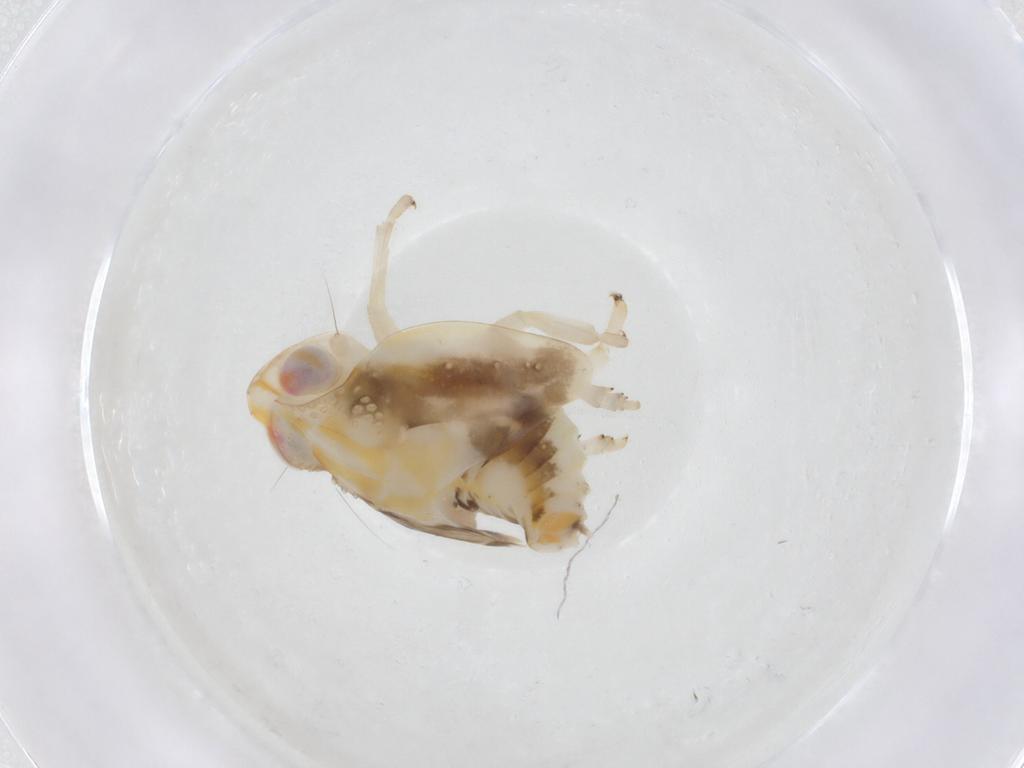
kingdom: Animalia
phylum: Arthropoda
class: Insecta
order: Hemiptera
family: Nogodinidae
